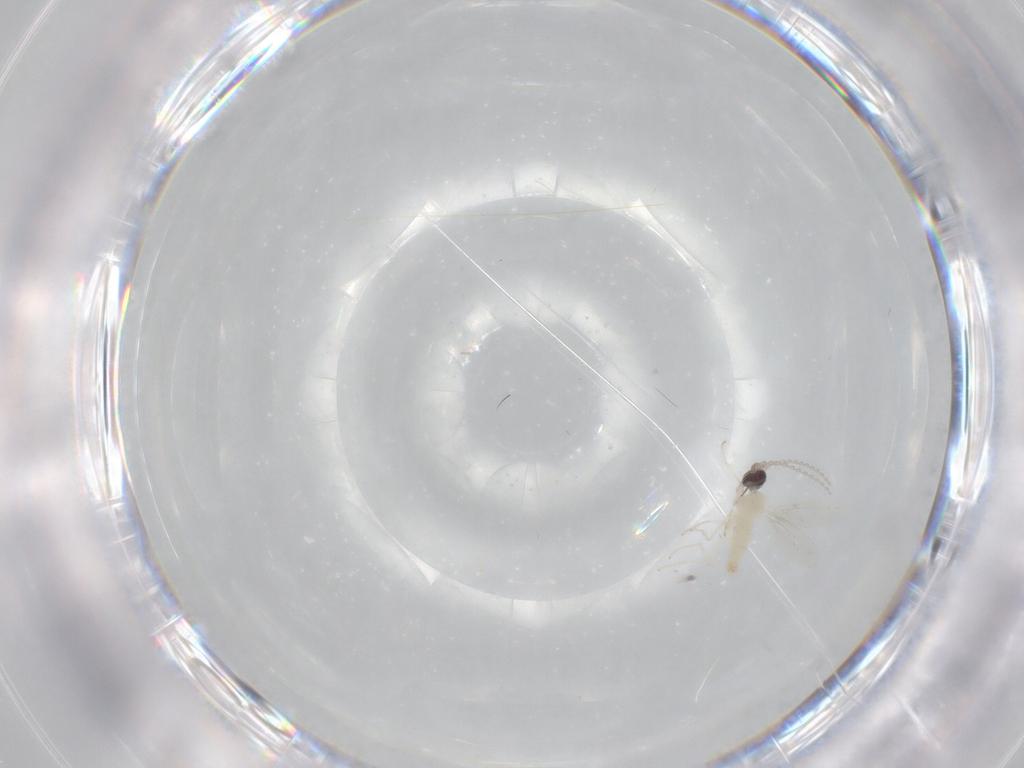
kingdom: Animalia
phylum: Arthropoda
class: Insecta
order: Diptera
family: Cecidomyiidae
